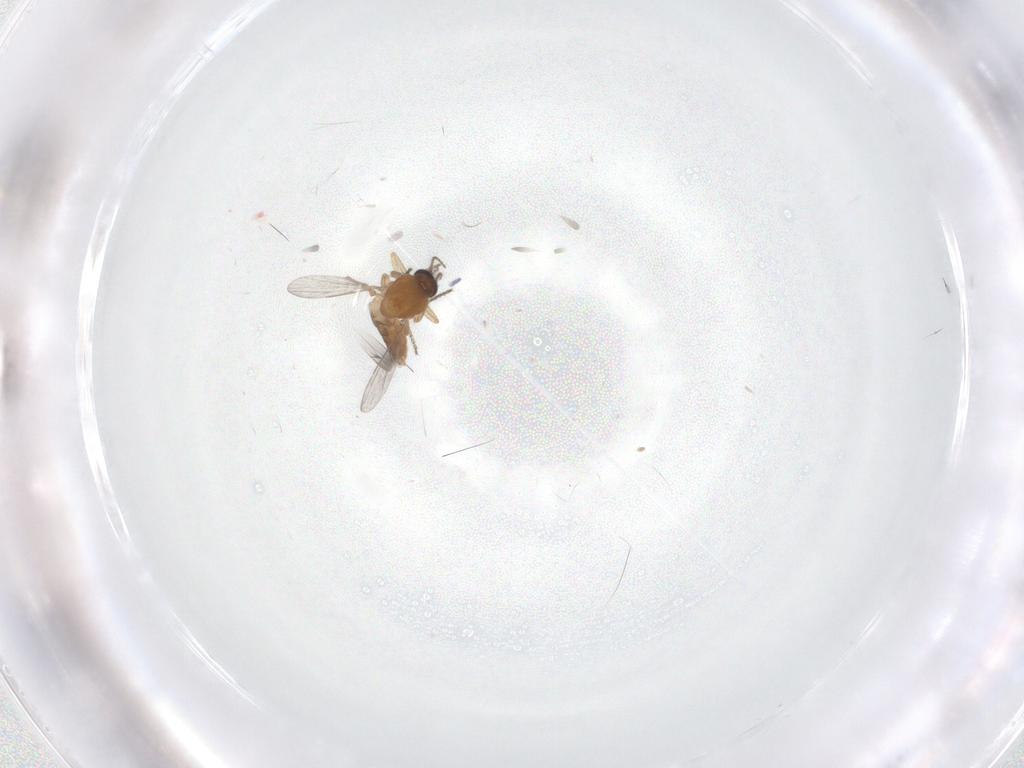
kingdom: Animalia
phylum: Arthropoda
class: Insecta
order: Diptera
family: Ceratopogonidae
